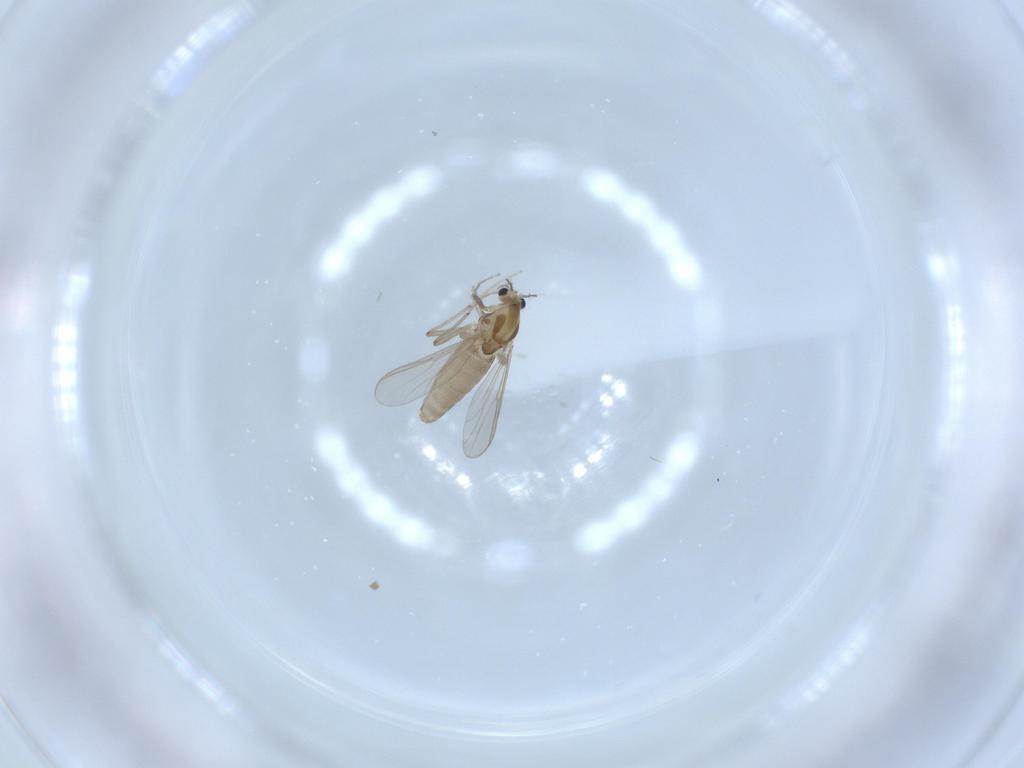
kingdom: Animalia
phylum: Arthropoda
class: Insecta
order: Diptera
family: Chironomidae
